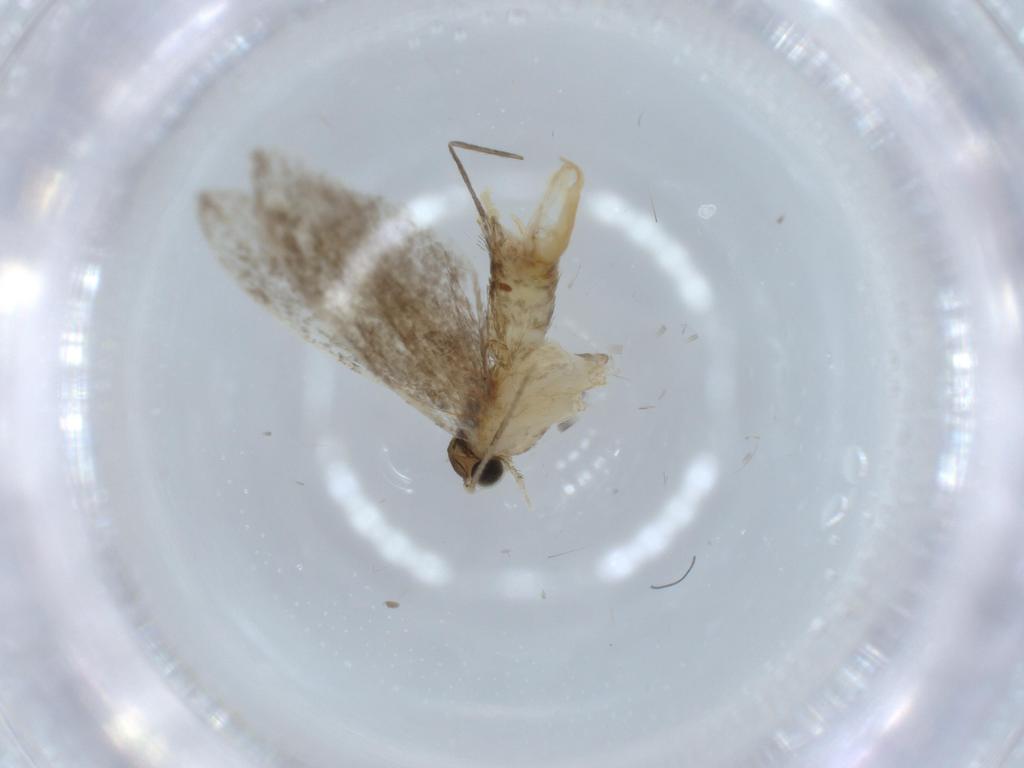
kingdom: Animalia
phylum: Arthropoda
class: Insecta
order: Lepidoptera
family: Tineidae
